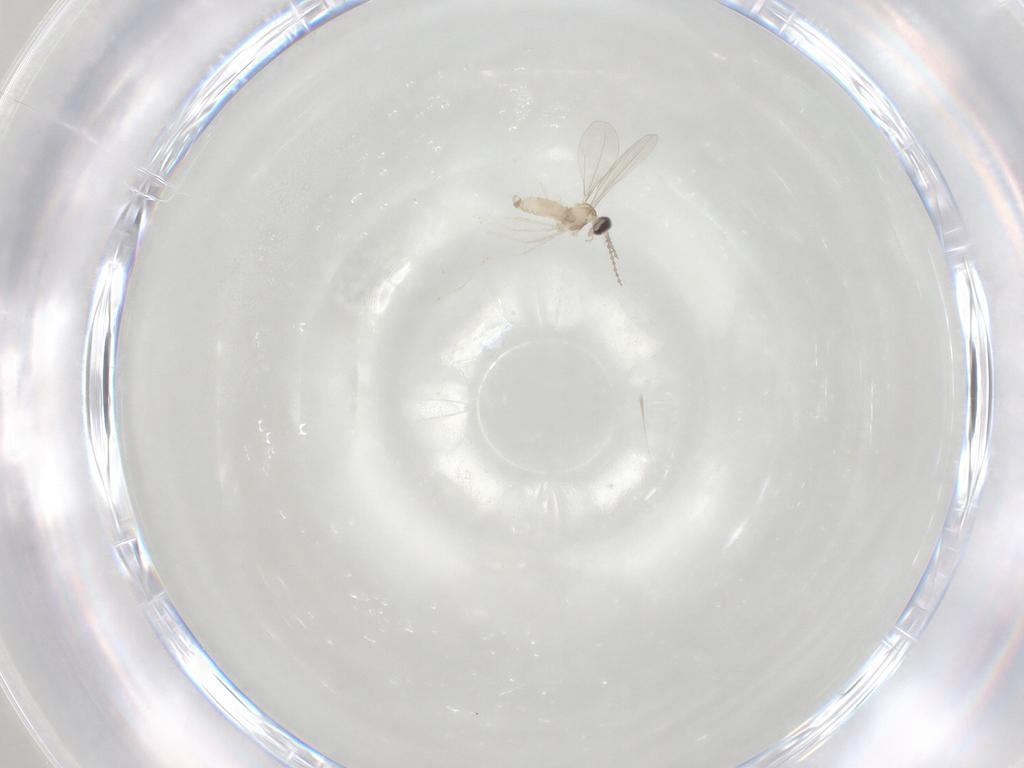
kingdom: Animalia
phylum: Arthropoda
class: Insecta
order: Diptera
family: Cecidomyiidae
